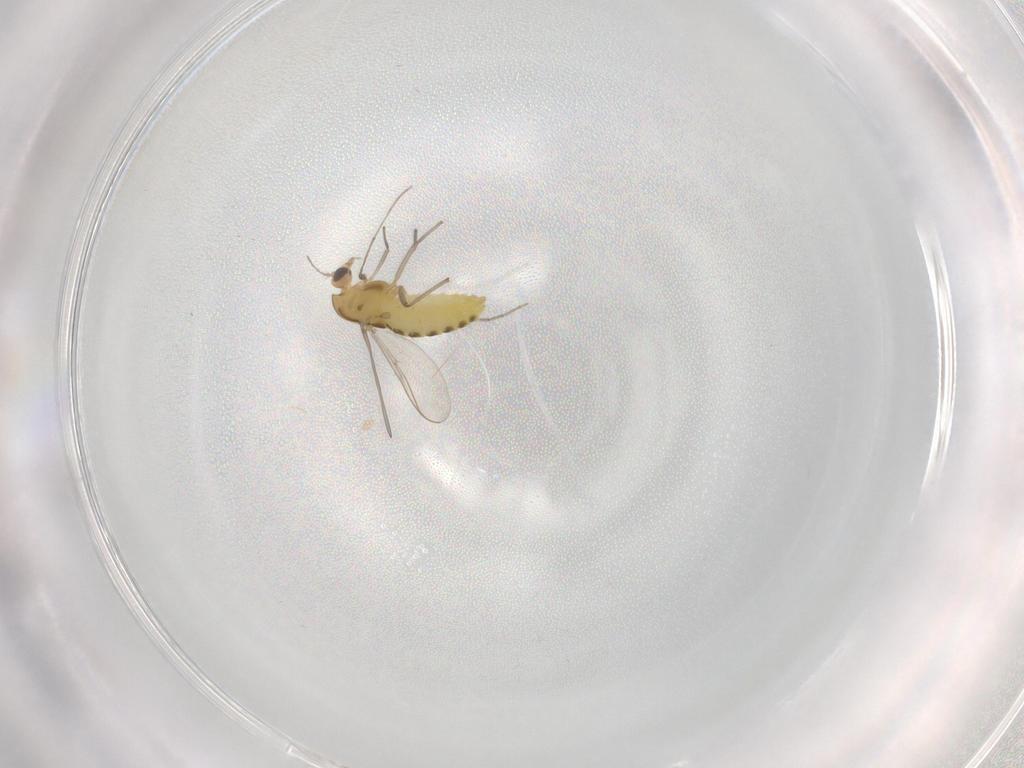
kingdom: Animalia
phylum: Arthropoda
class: Insecta
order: Diptera
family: Chironomidae
